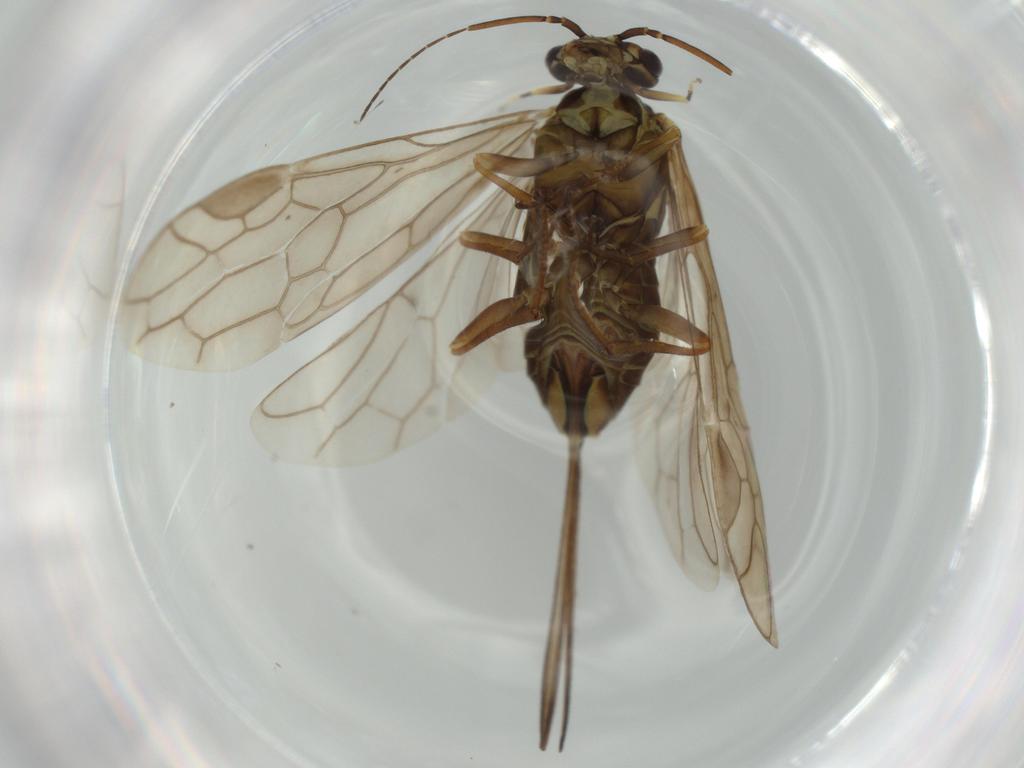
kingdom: Animalia
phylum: Arthropoda
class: Insecta
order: Hymenoptera
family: Xyelidae
